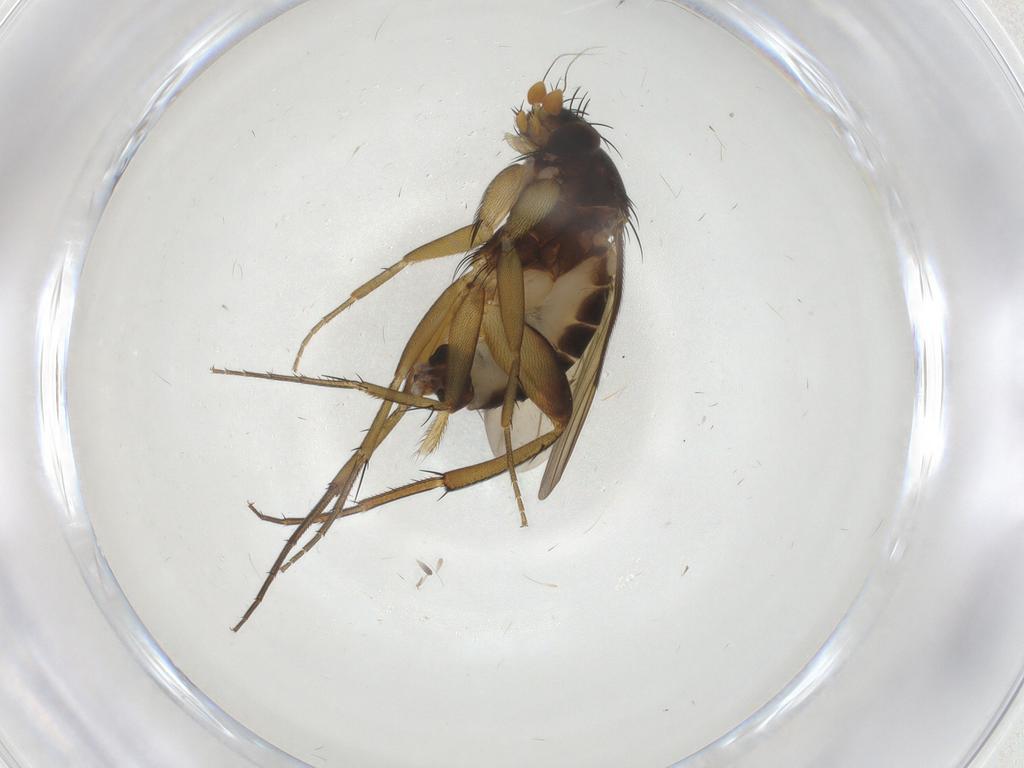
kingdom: Animalia
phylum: Arthropoda
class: Insecta
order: Diptera
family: Phoridae
